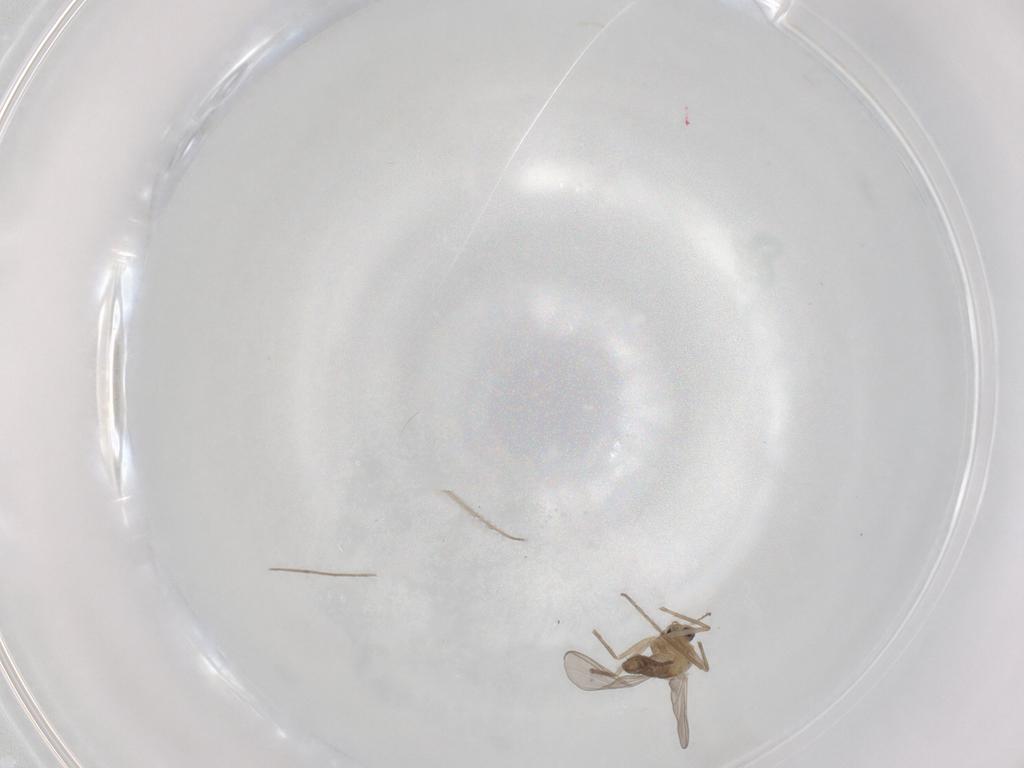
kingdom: Animalia
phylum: Arthropoda
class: Insecta
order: Diptera
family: Chironomidae
